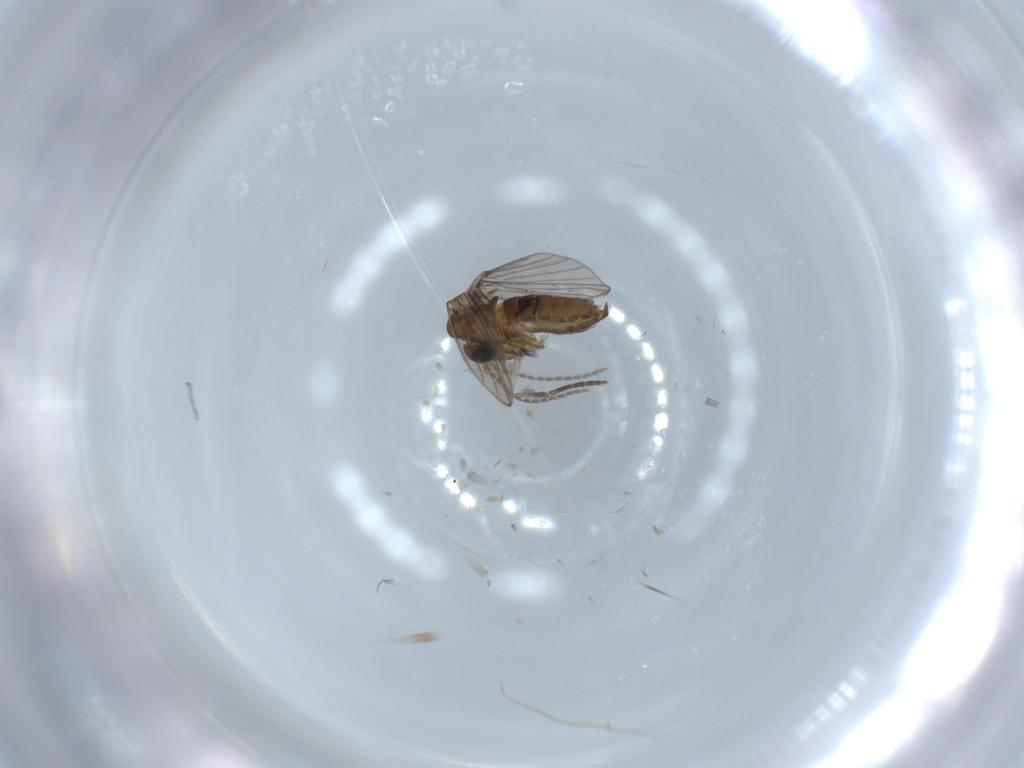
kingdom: Animalia
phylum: Arthropoda
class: Insecta
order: Diptera
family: Psychodidae
